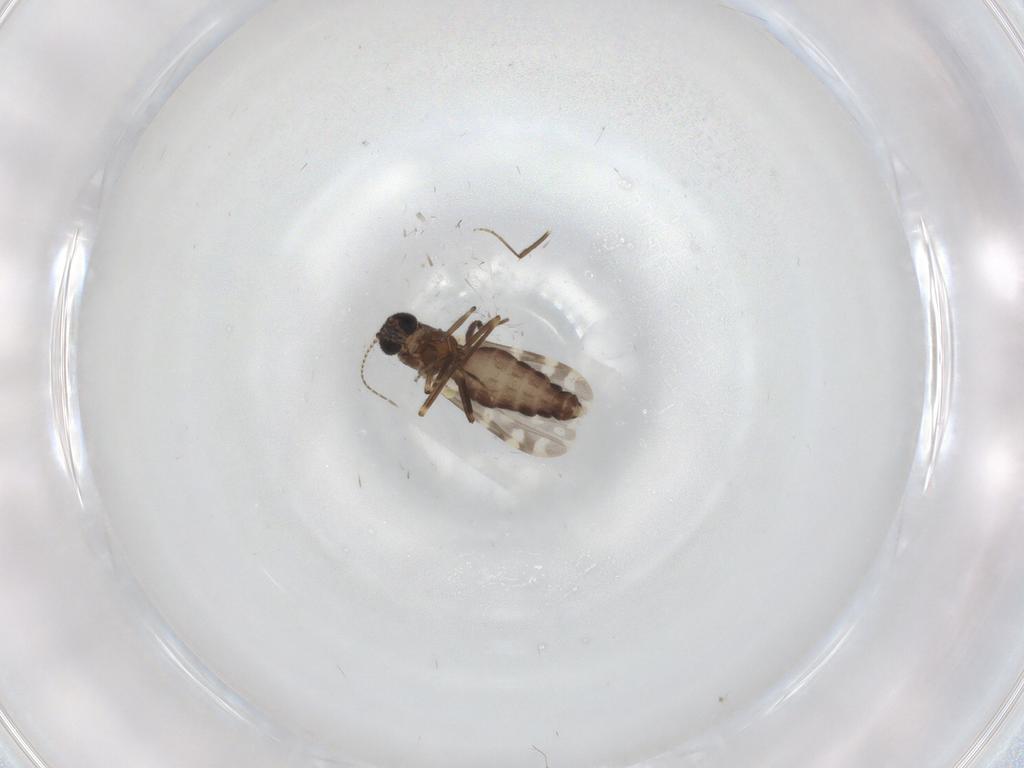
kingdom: Animalia
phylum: Arthropoda
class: Insecta
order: Diptera
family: Ceratopogonidae
